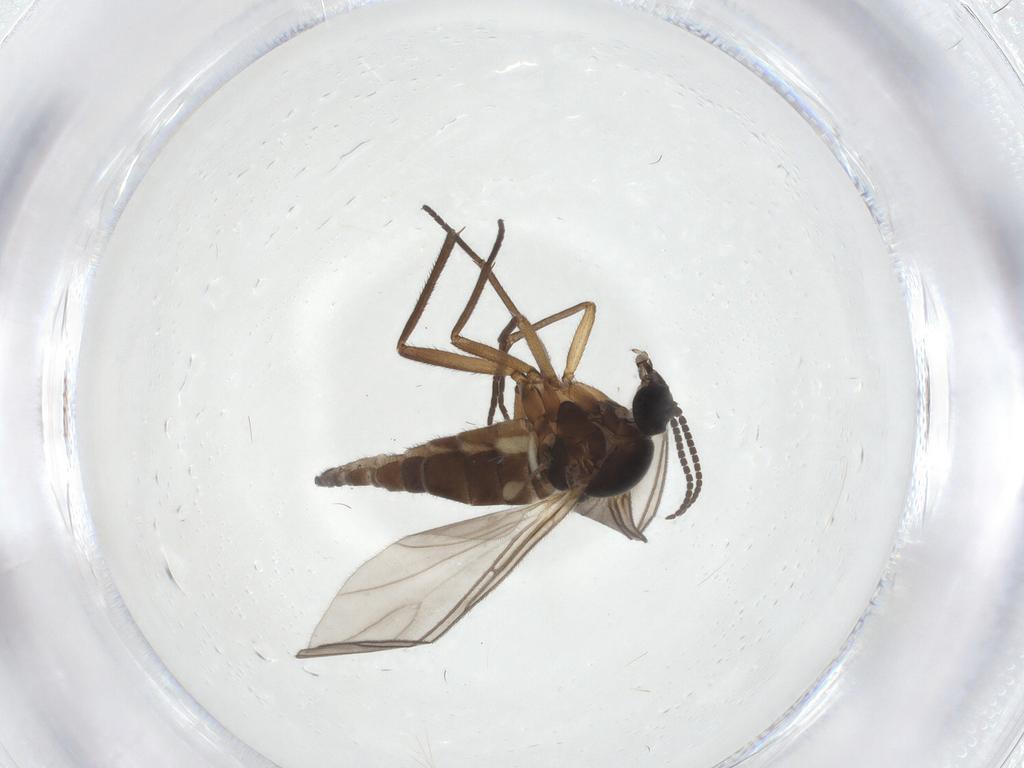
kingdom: Animalia
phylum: Arthropoda
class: Insecta
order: Diptera
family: Sciaridae
